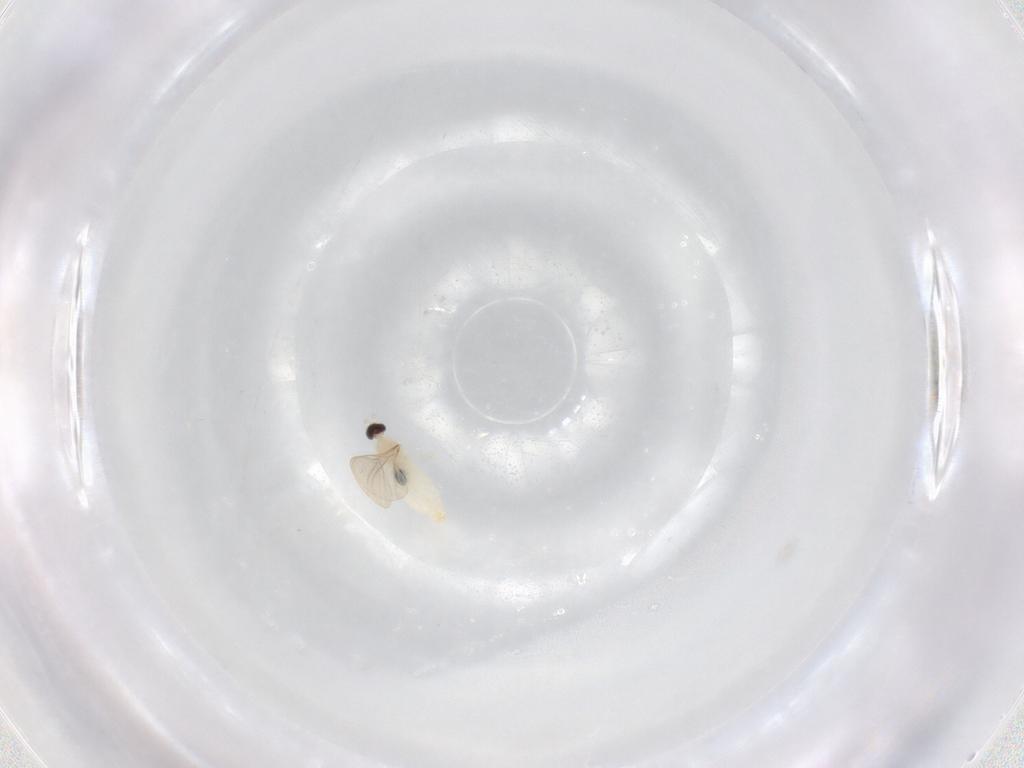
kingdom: Animalia
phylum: Arthropoda
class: Insecta
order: Diptera
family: Cecidomyiidae
